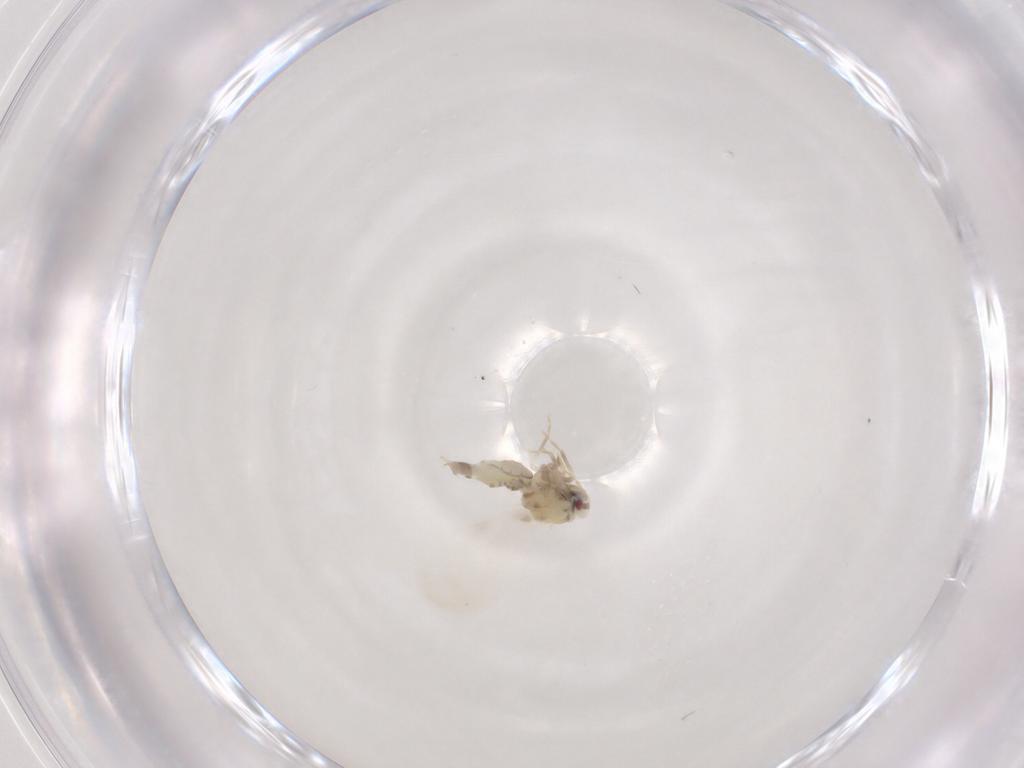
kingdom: Animalia
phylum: Arthropoda
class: Insecta
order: Hemiptera
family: Aleyrodidae
